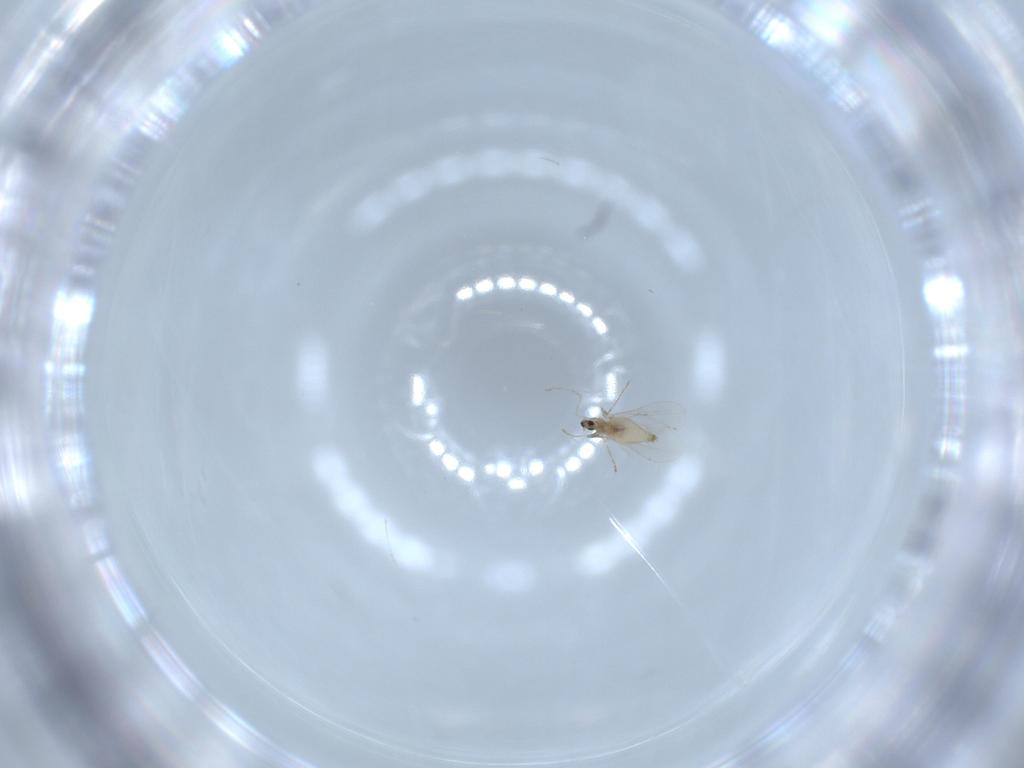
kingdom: Animalia
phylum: Arthropoda
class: Insecta
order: Diptera
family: Cecidomyiidae
